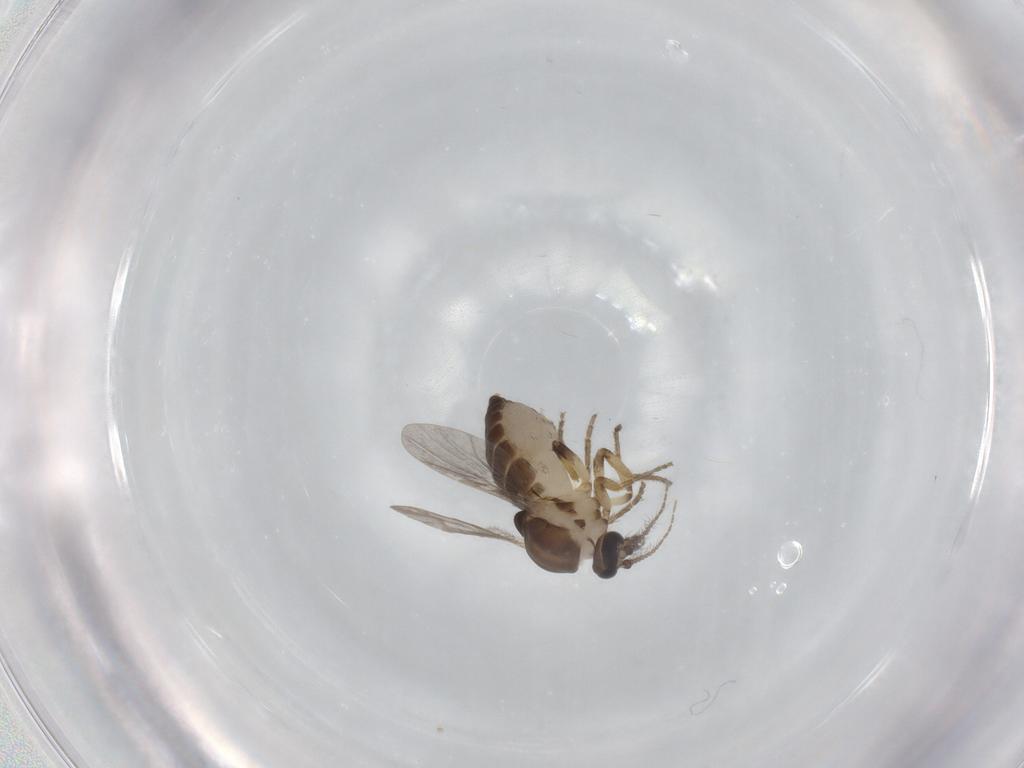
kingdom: Animalia
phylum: Arthropoda
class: Insecta
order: Diptera
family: Ceratopogonidae
